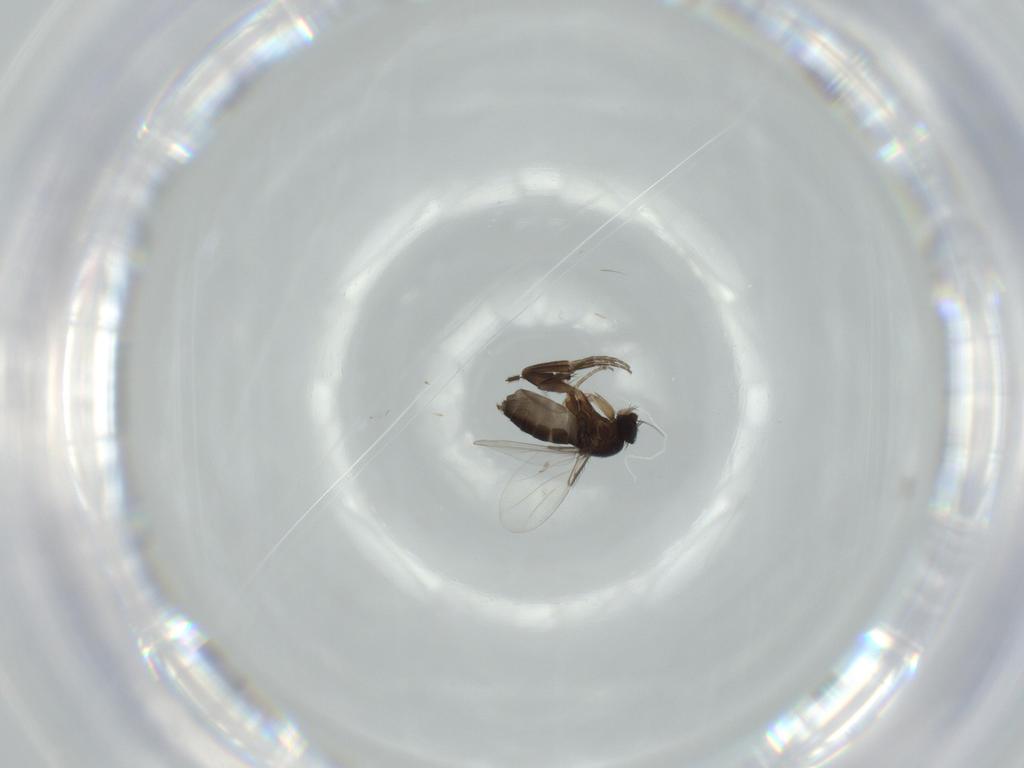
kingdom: Animalia
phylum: Arthropoda
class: Insecta
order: Diptera
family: Phoridae
